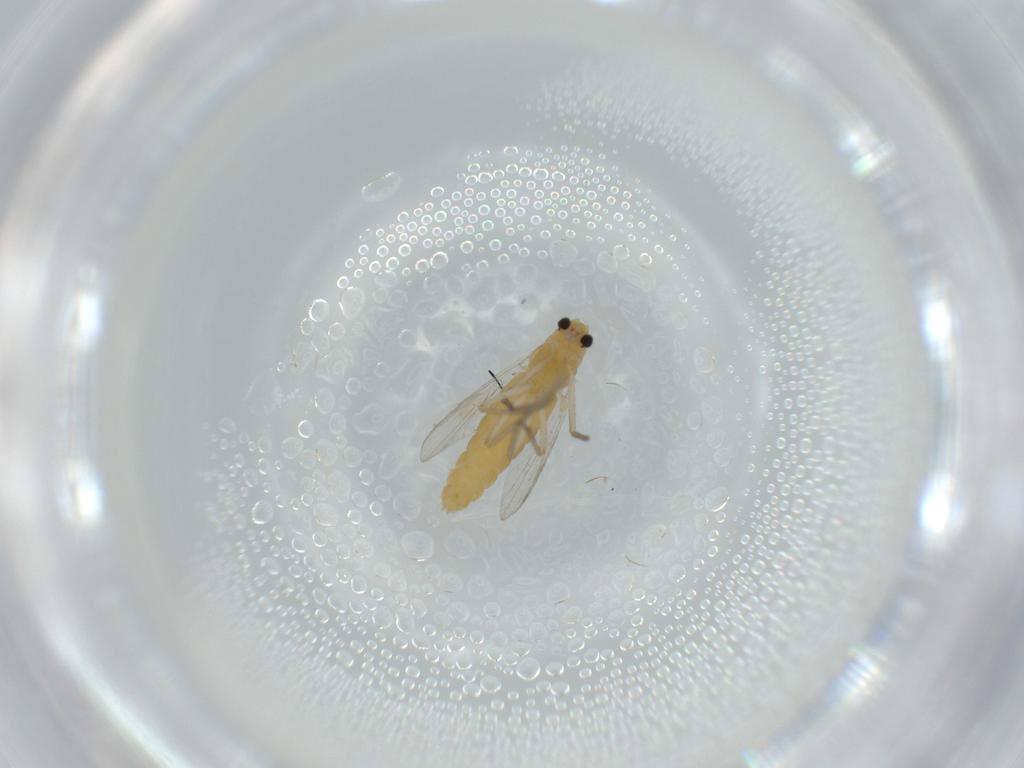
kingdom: Animalia
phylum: Arthropoda
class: Insecta
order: Diptera
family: Chironomidae
